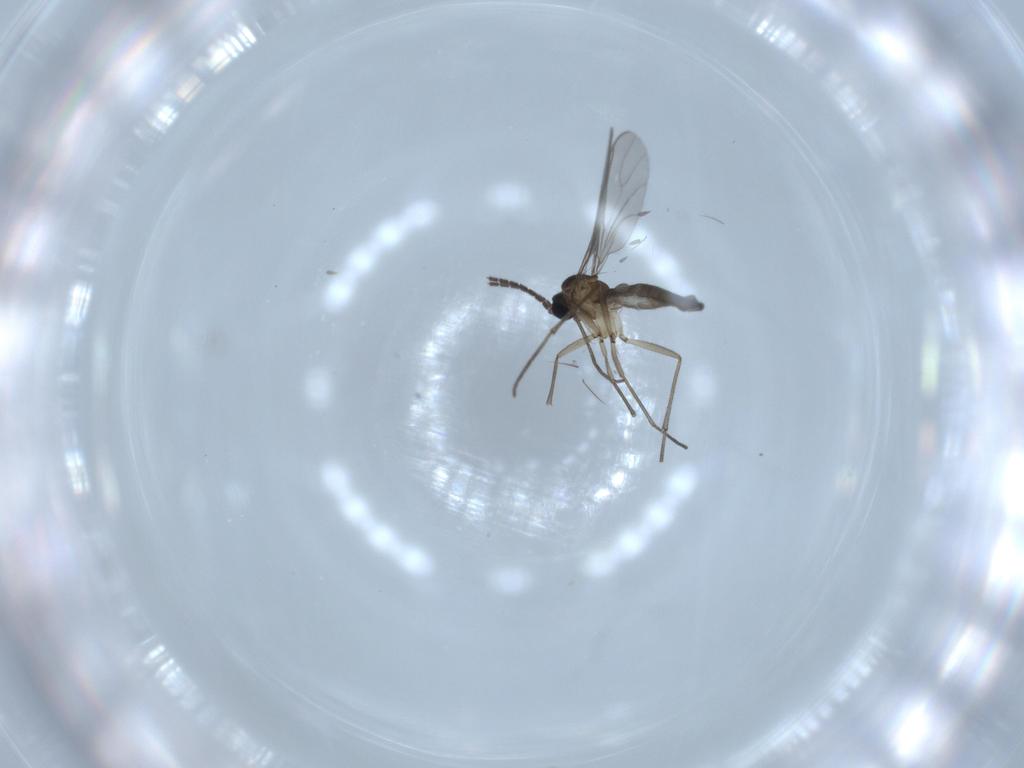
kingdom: Animalia
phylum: Arthropoda
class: Insecta
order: Diptera
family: Sciaridae
